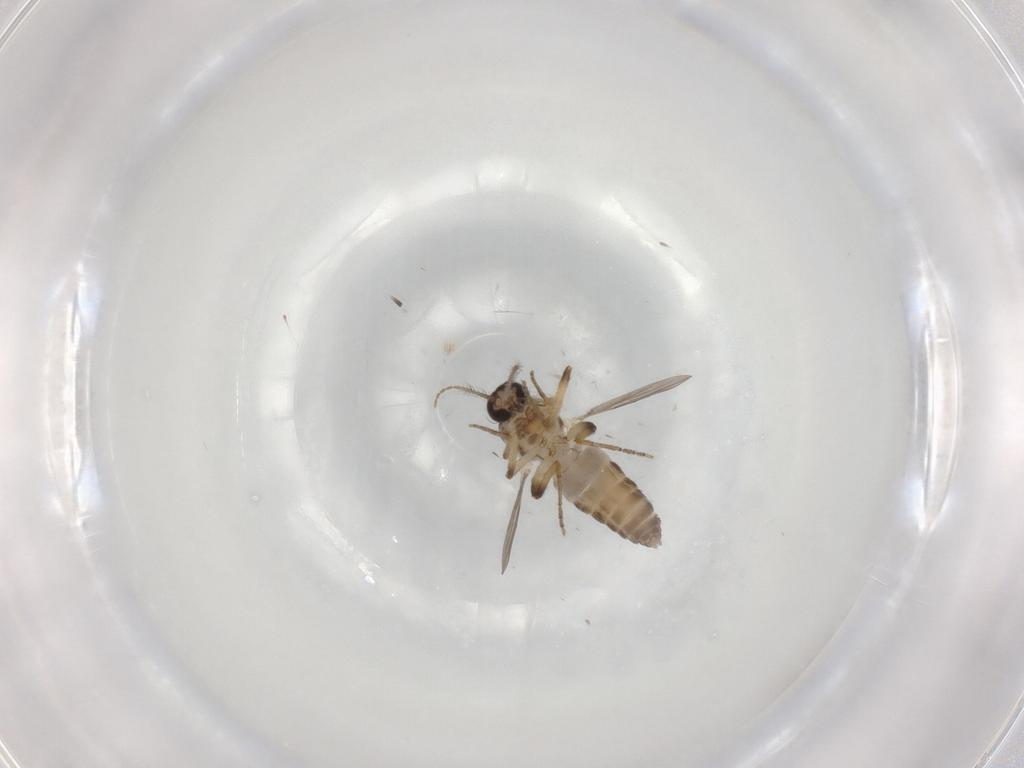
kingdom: Animalia
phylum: Arthropoda
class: Insecta
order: Diptera
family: Ceratopogonidae
